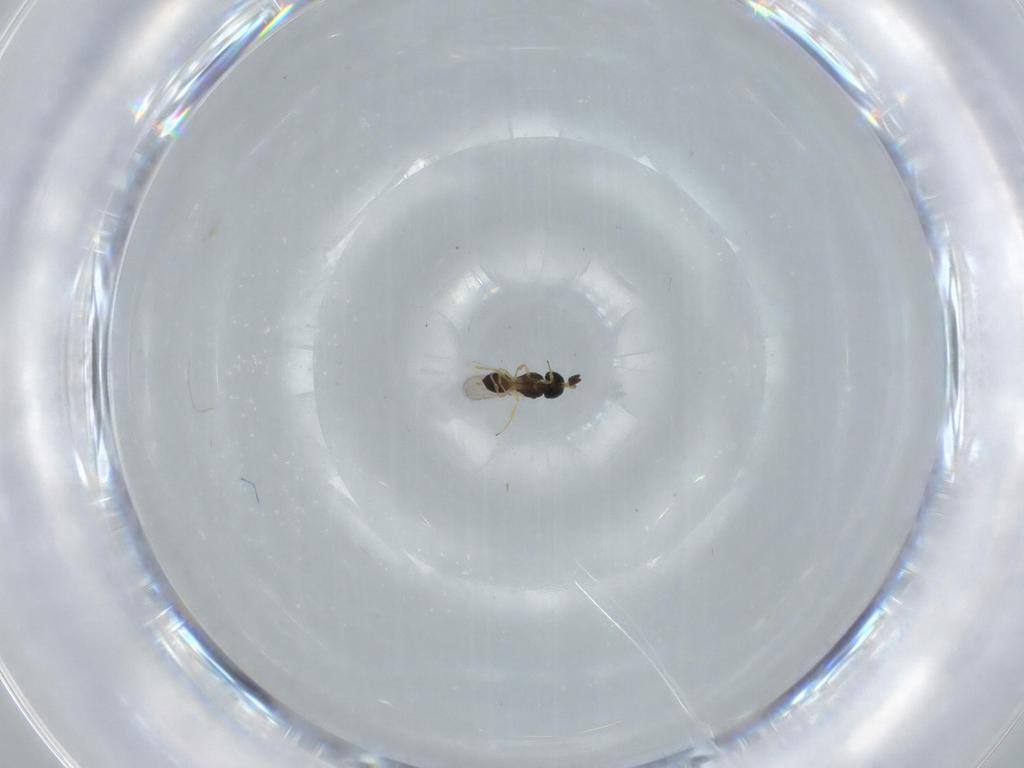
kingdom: Animalia
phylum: Arthropoda
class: Insecta
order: Hymenoptera
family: Scelionidae
